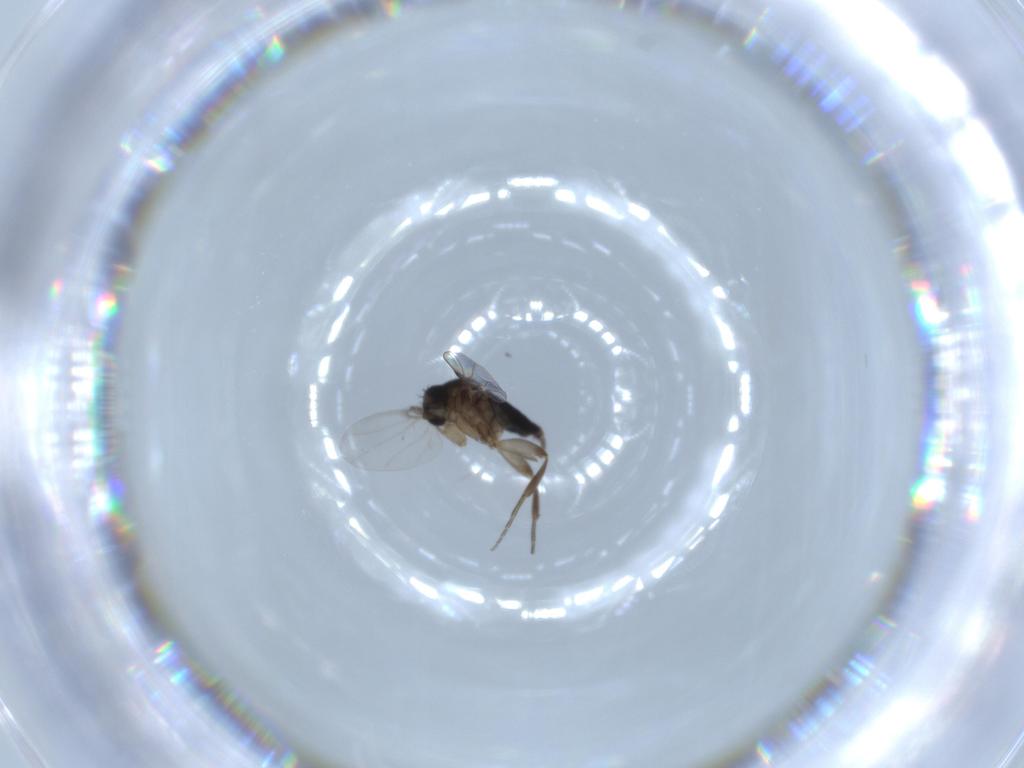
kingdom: Animalia
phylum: Arthropoda
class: Insecta
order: Diptera
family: Phoridae
